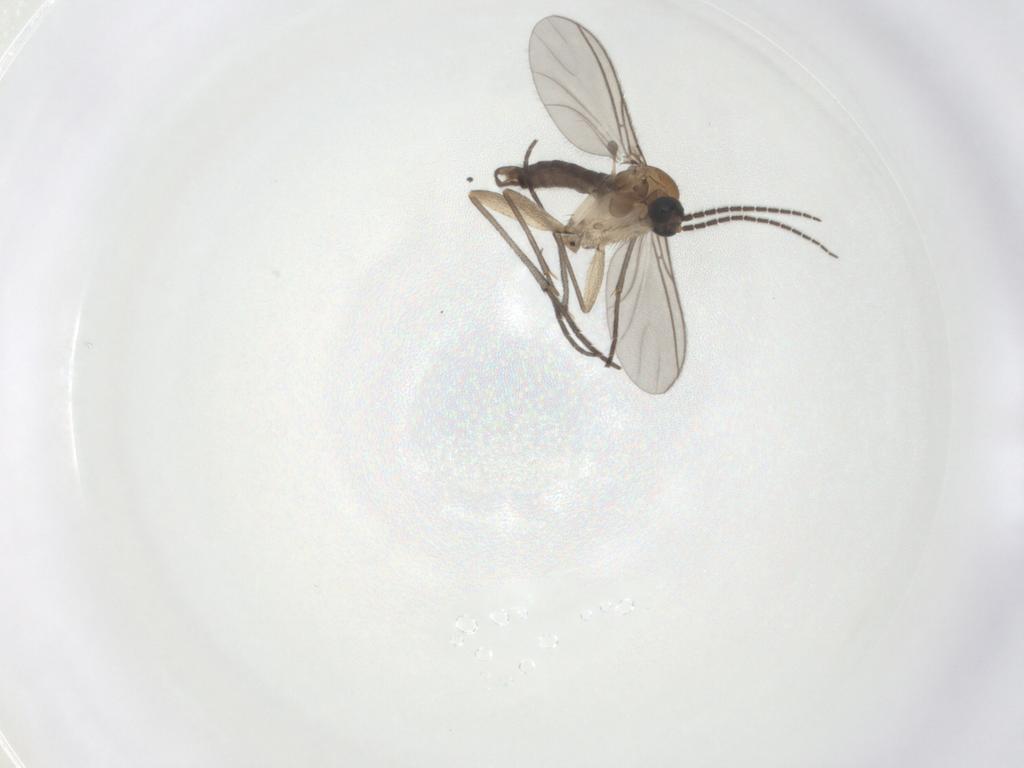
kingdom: Animalia
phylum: Arthropoda
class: Insecta
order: Diptera
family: Sciaridae
